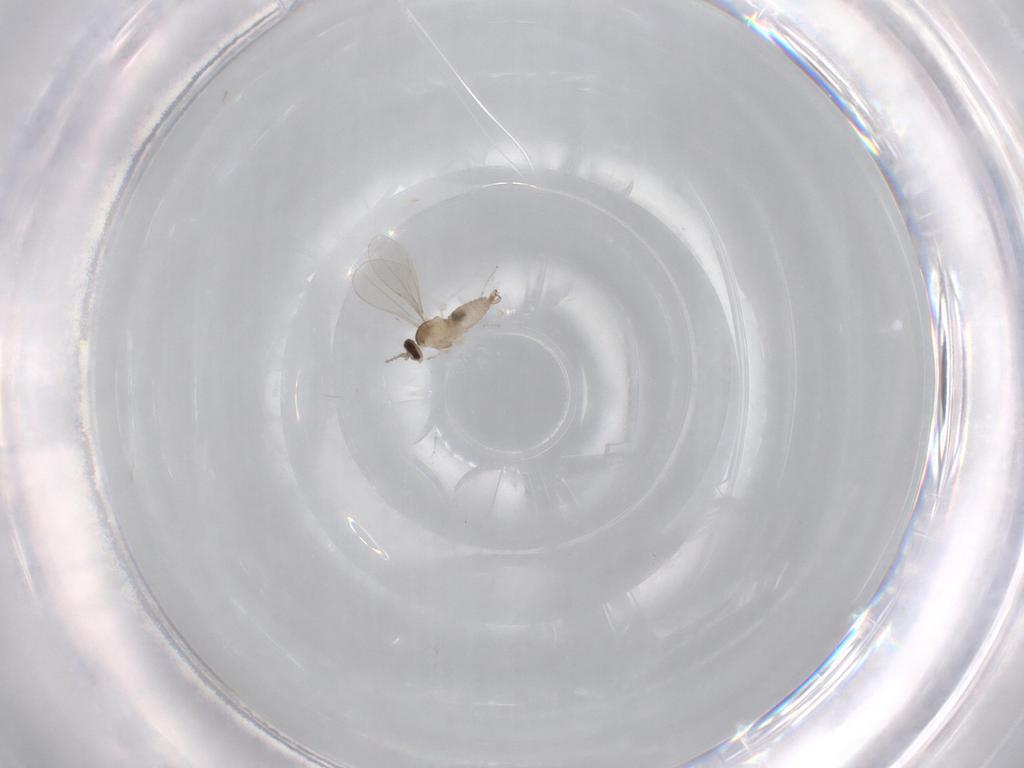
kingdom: Animalia
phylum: Arthropoda
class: Insecta
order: Diptera
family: Cecidomyiidae
